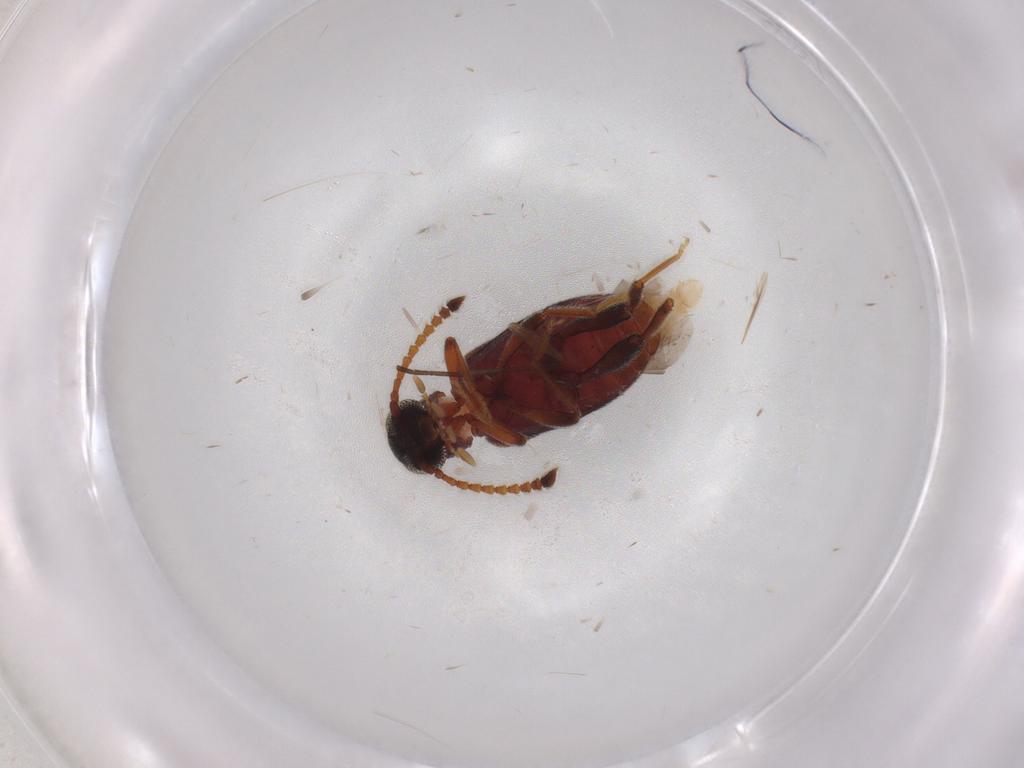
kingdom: Animalia
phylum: Arthropoda
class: Insecta
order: Coleoptera
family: Aderidae
